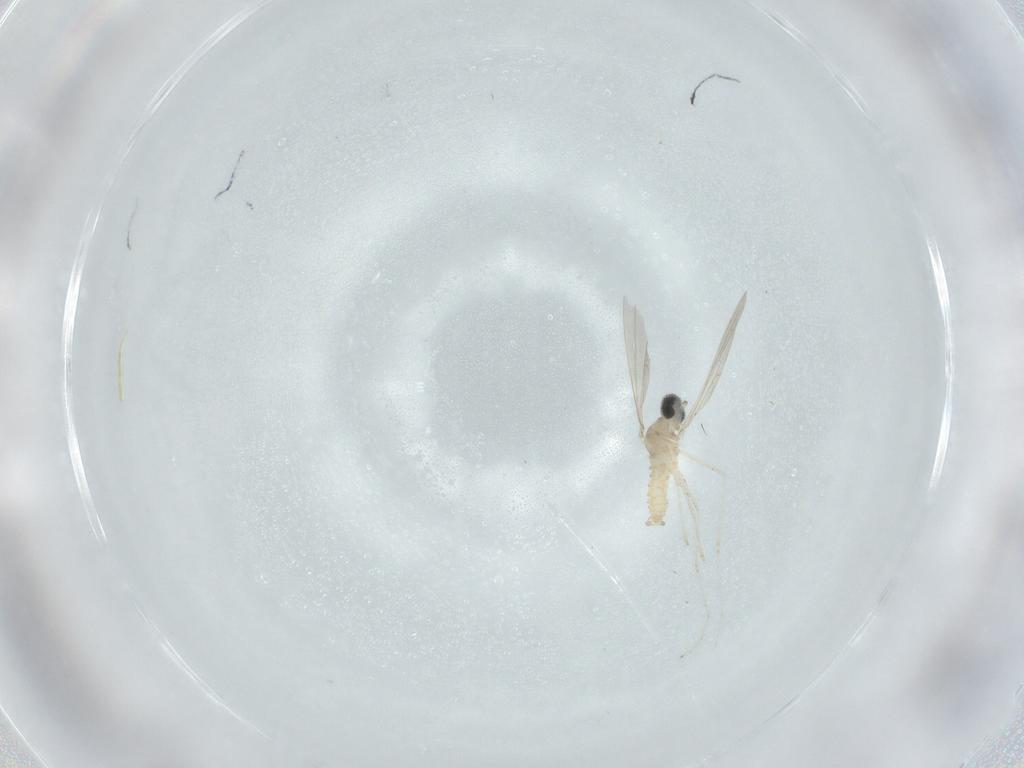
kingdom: Animalia
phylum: Arthropoda
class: Insecta
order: Diptera
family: Cecidomyiidae
